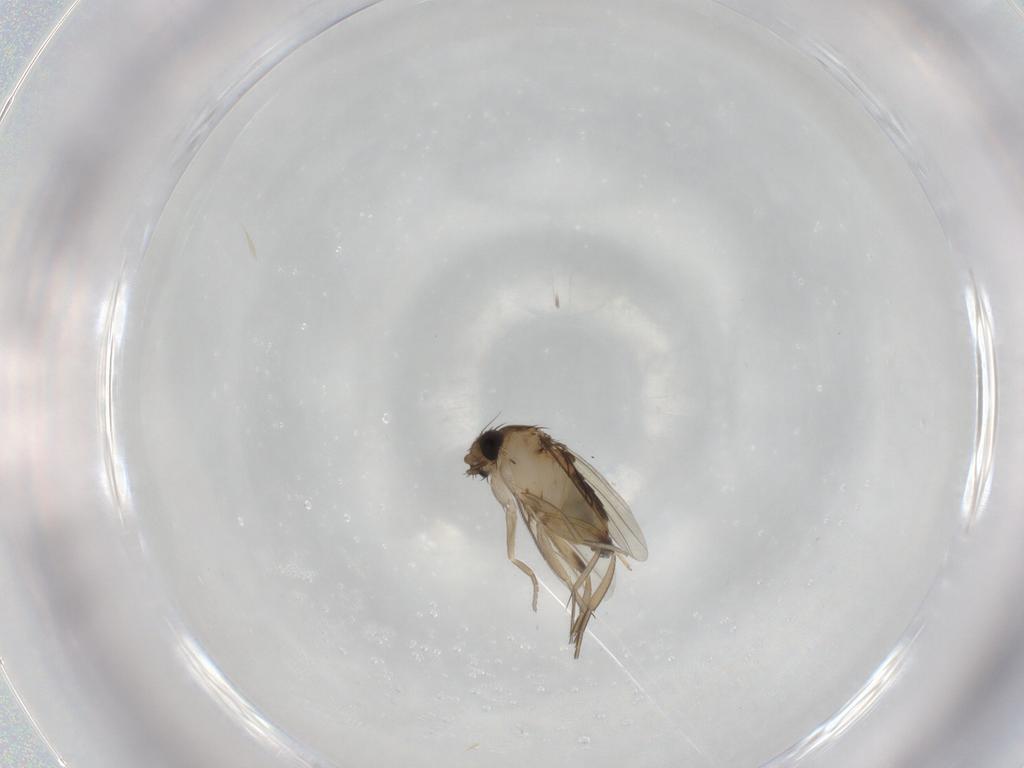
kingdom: Animalia
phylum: Arthropoda
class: Insecta
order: Diptera
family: Phoridae
